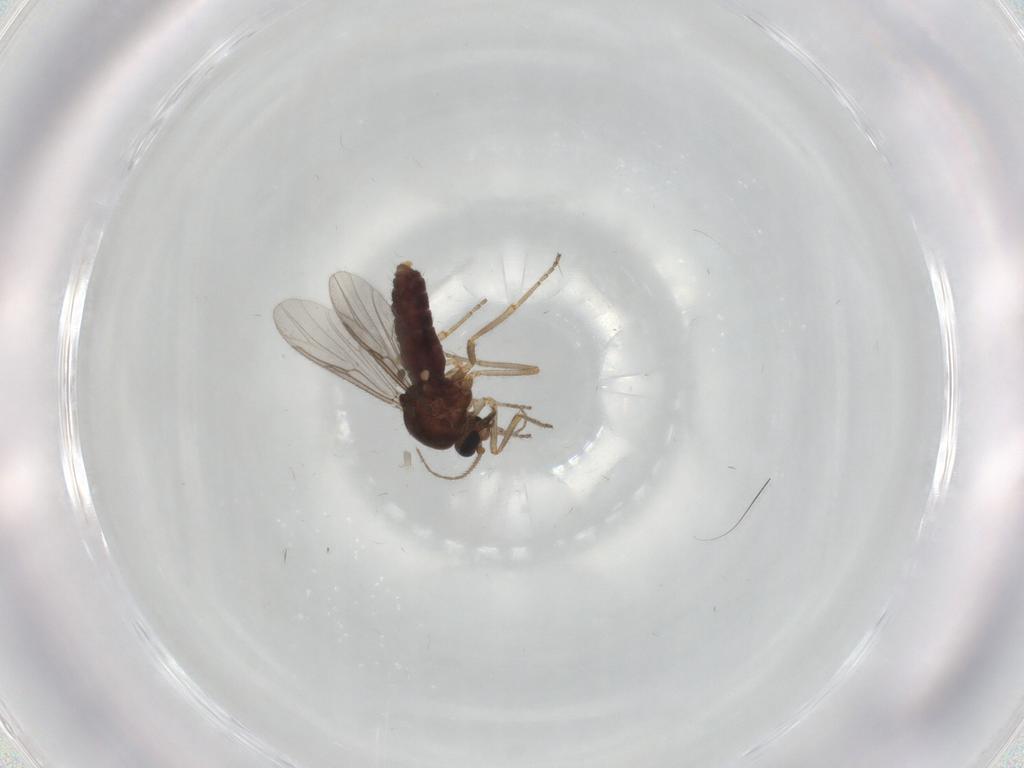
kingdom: Animalia
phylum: Arthropoda
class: Insecta
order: Diptera
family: Ceratopogonidae
